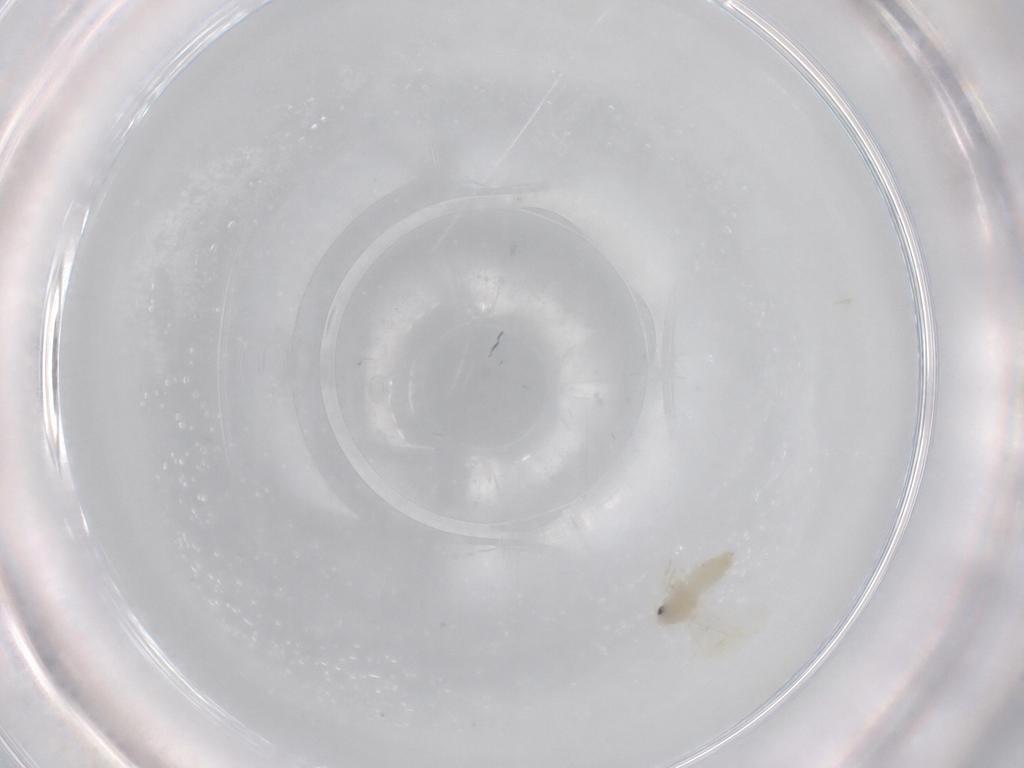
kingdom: Animalia
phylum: Arthropoda
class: Insecta
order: Hemiptera
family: Aleyrodidae
